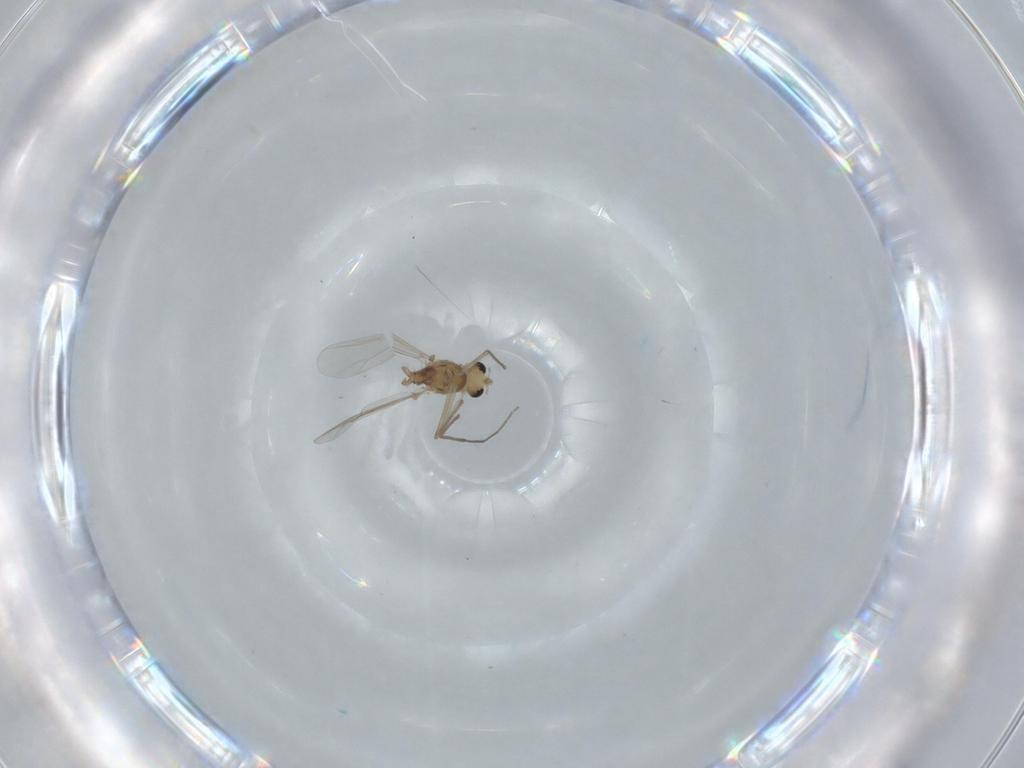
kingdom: Animalia
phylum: Arthropoda
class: Insecta
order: Diptera
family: Chironomidae
